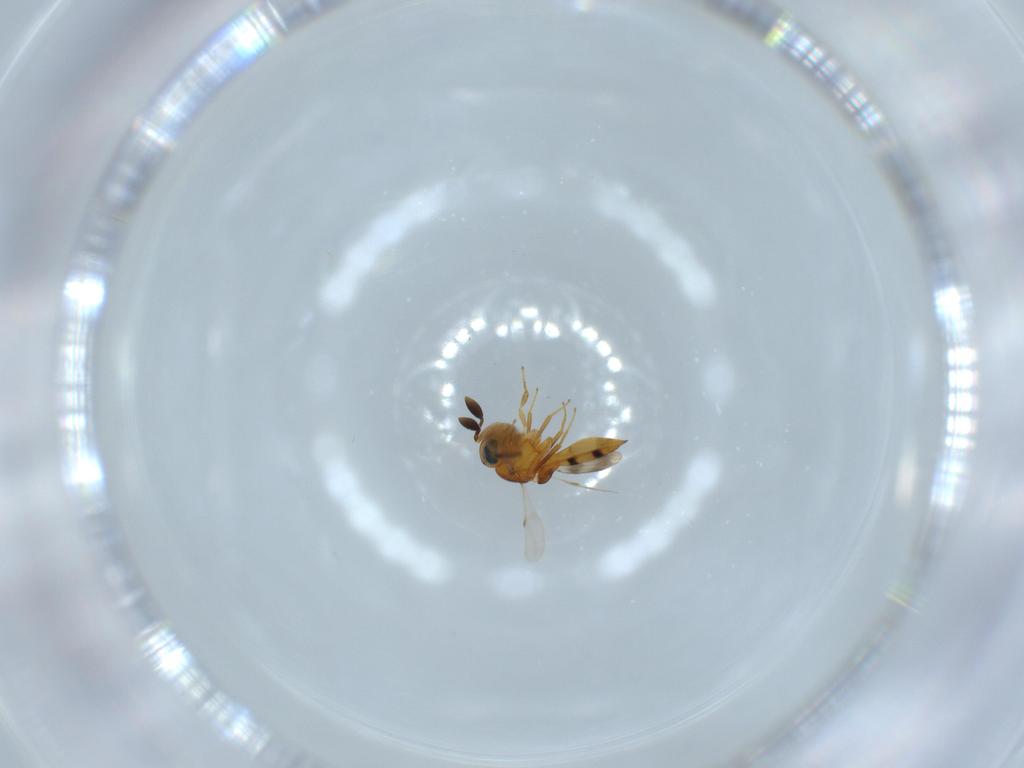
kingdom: Animalia
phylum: Arthropoda
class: Insecta
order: Hymenoptera
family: Scelionidae
